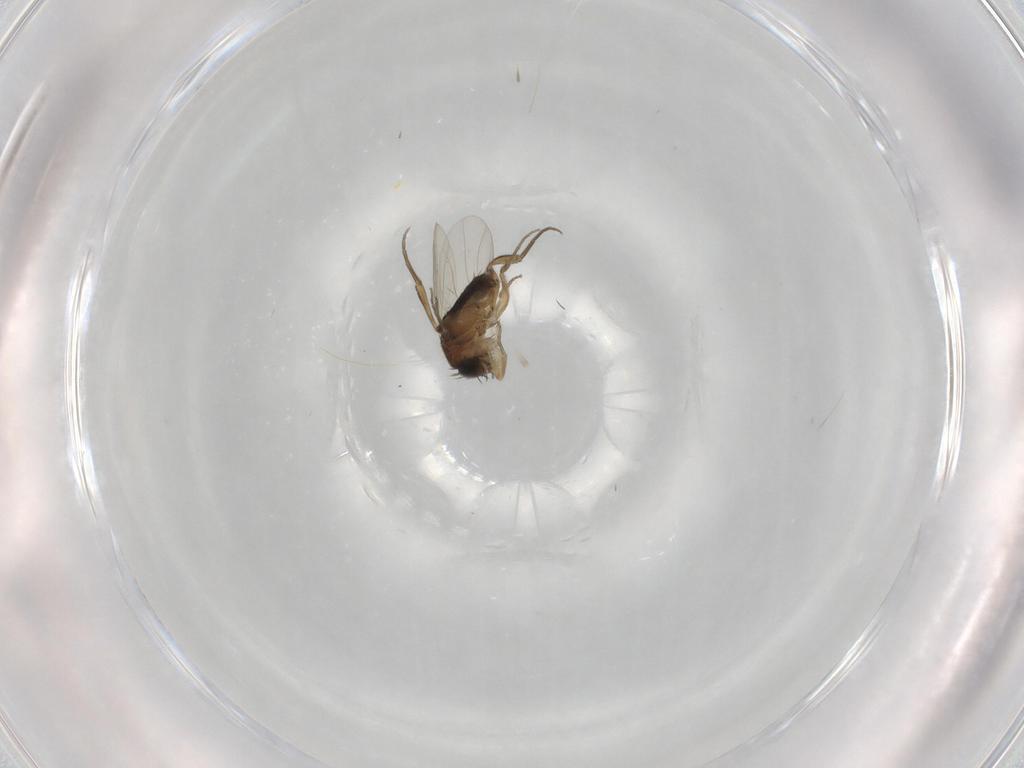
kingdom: Animalia
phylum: Arthropoda
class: Insecta
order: Diptera
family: Phoridae
